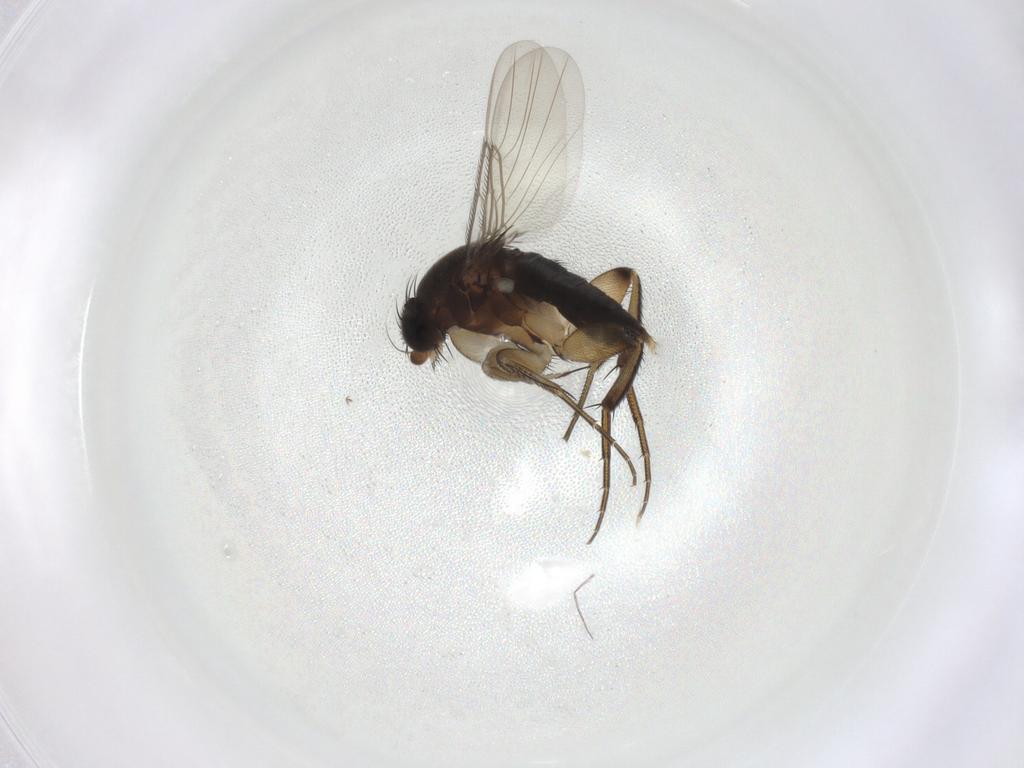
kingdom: Animalia
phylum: Arthropoda
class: Insecta
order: Diptera
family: Phoridae
